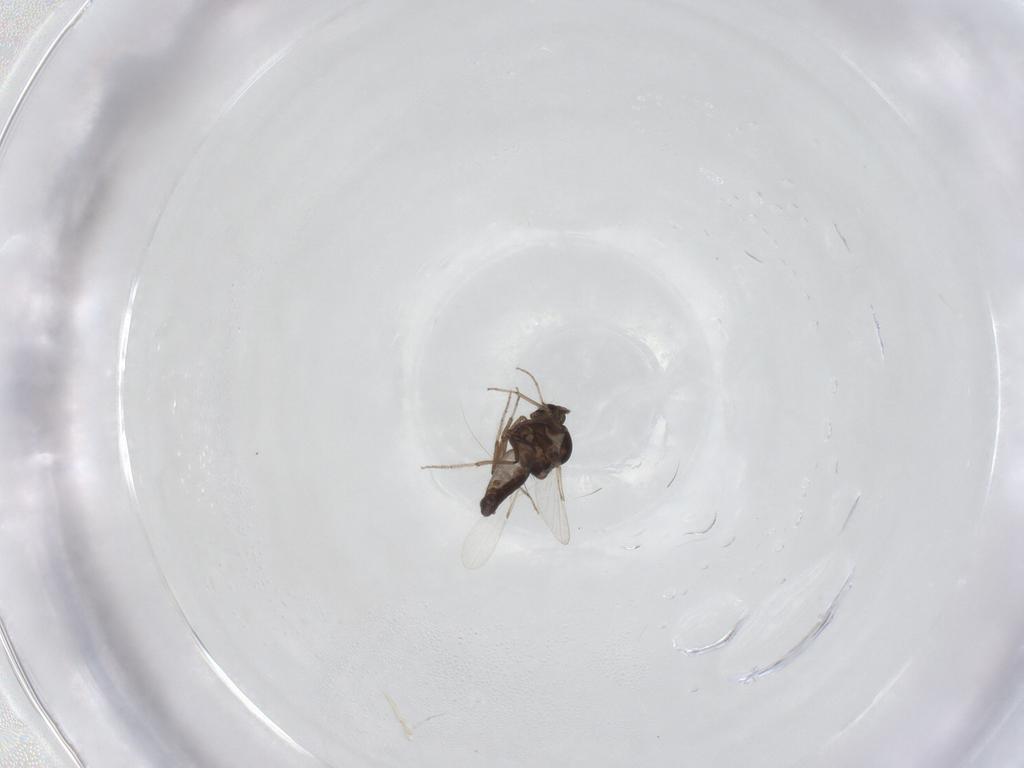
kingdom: Animalia
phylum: Arthropoda
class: Insecta
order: Diptera
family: Ceratopogonidae
